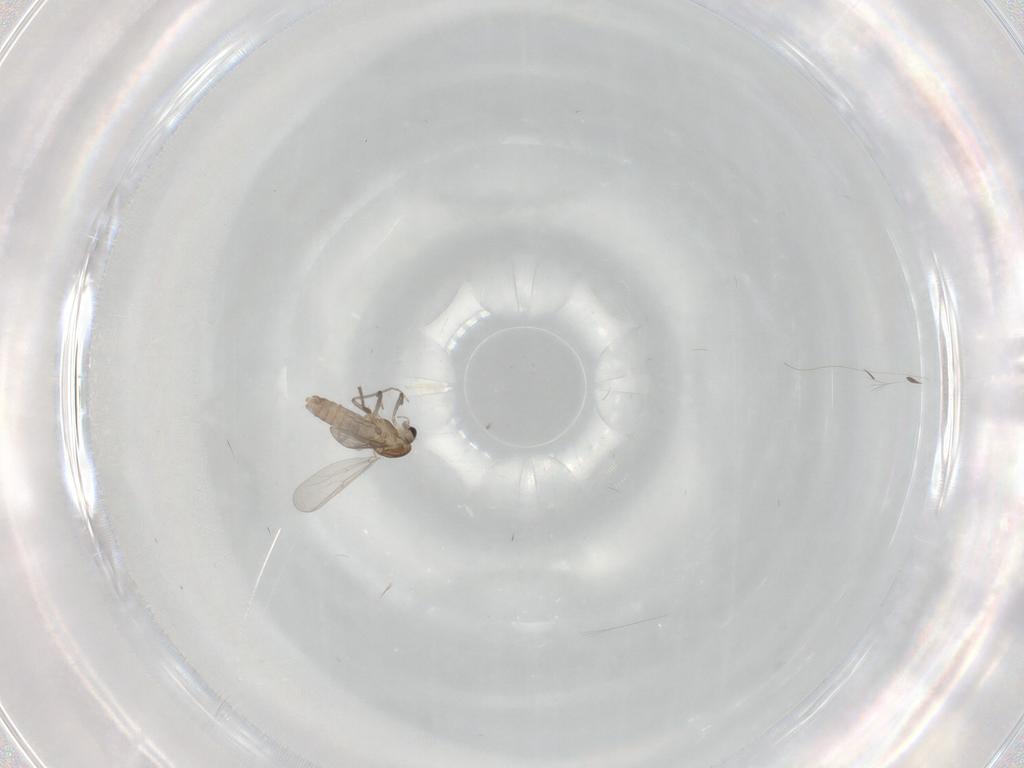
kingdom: Animalia
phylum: Arthropoda
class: Insecta
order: Diptera
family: Chironomidae
